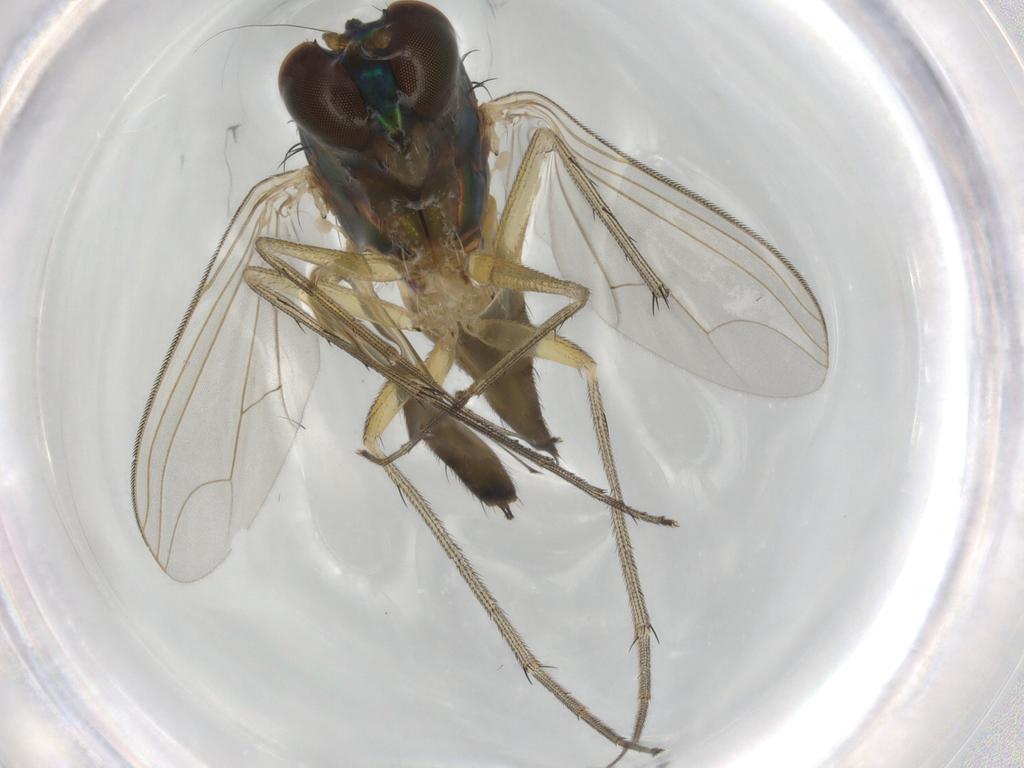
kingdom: Animalia
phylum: Arthropoda
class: Insecta
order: Diptera
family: Dolichopodidae
